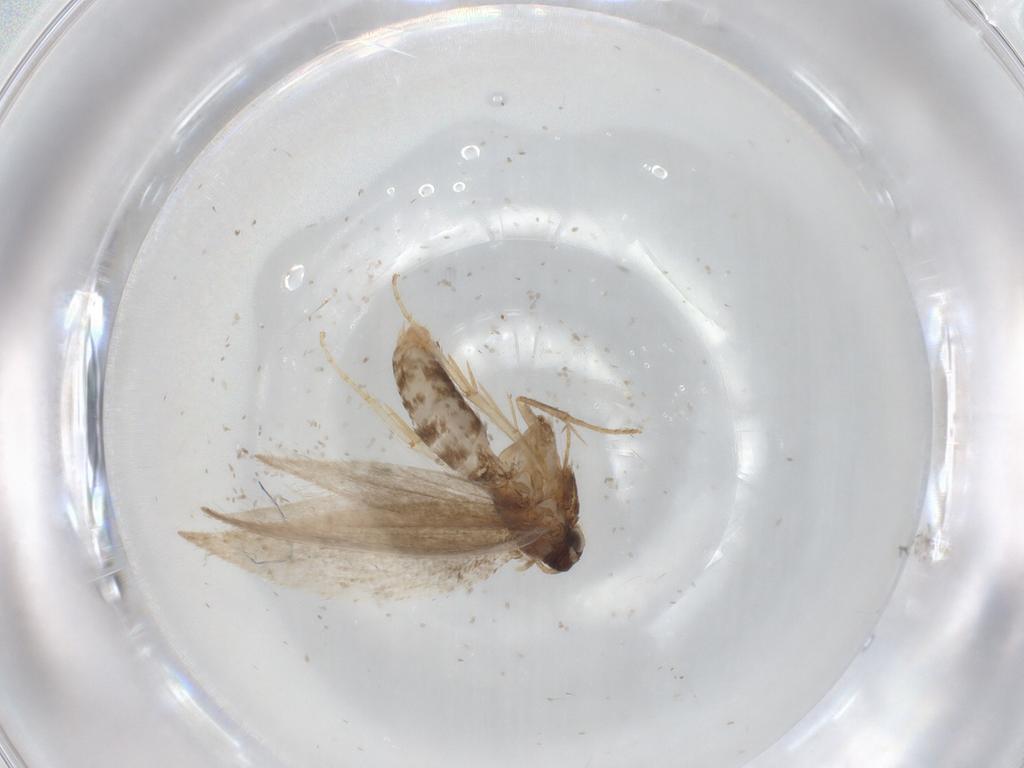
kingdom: Animalia
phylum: Arthropoda
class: Insecta
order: Lepidoptera
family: Nepticulidae
